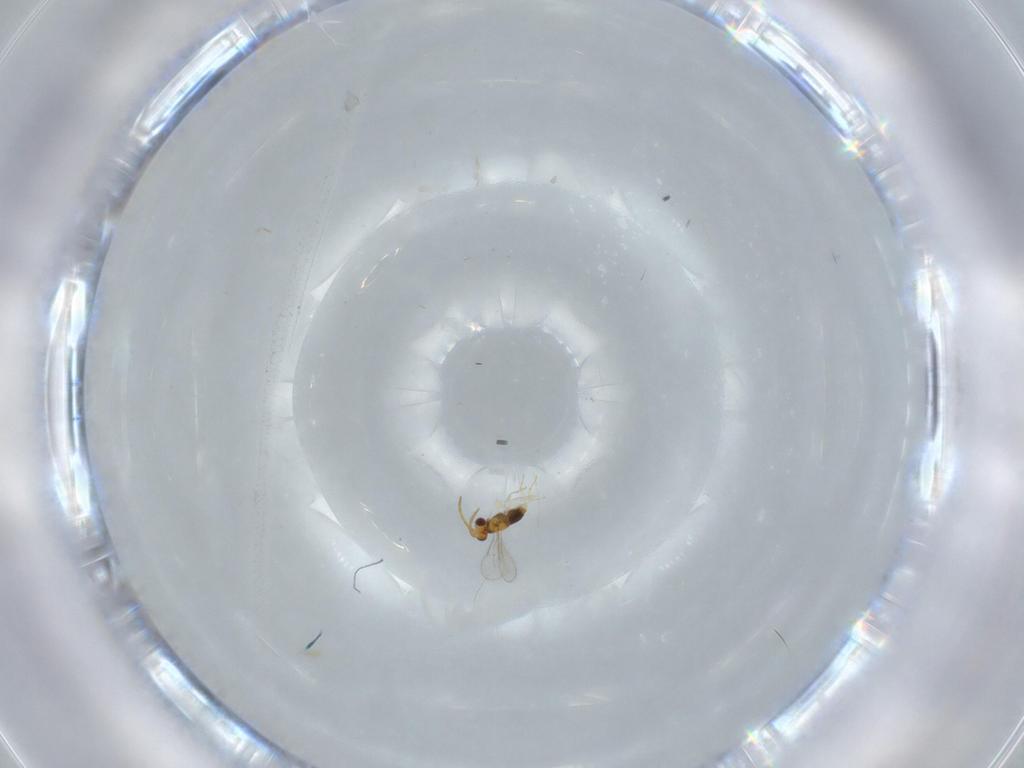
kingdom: Animalia
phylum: Arthropoda
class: Insecta
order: Hymenoptera
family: Aphelinidae
